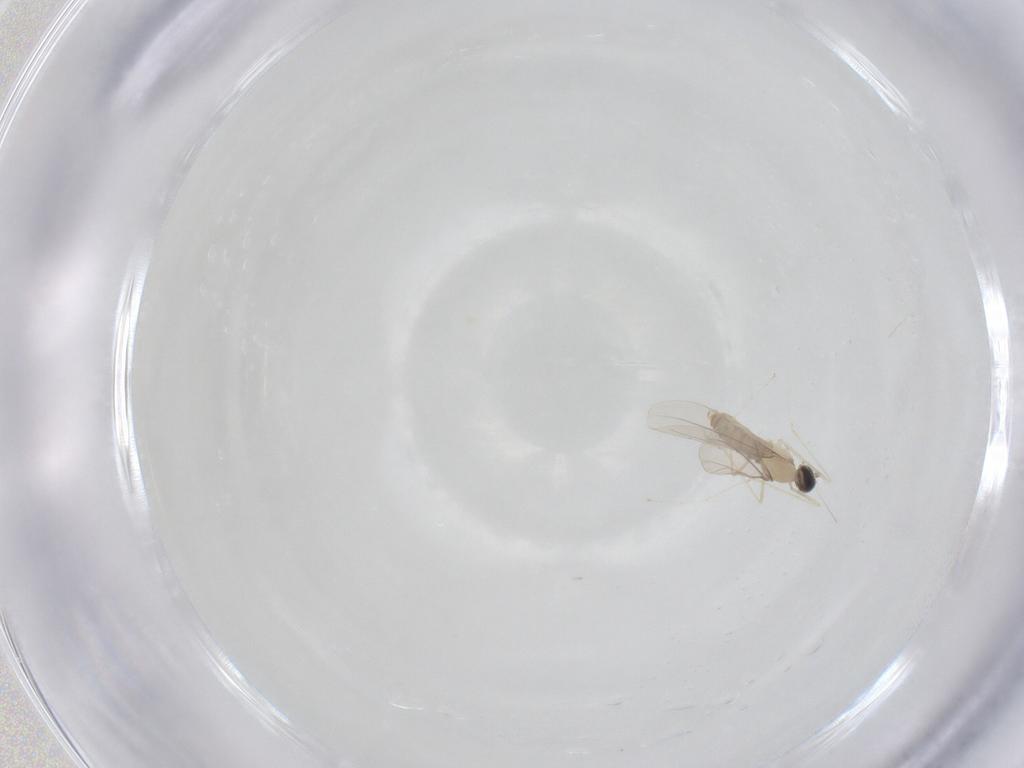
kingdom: Animalia
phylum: Arthropoda
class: Insecta
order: Diptera
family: Cecidomyiidae
